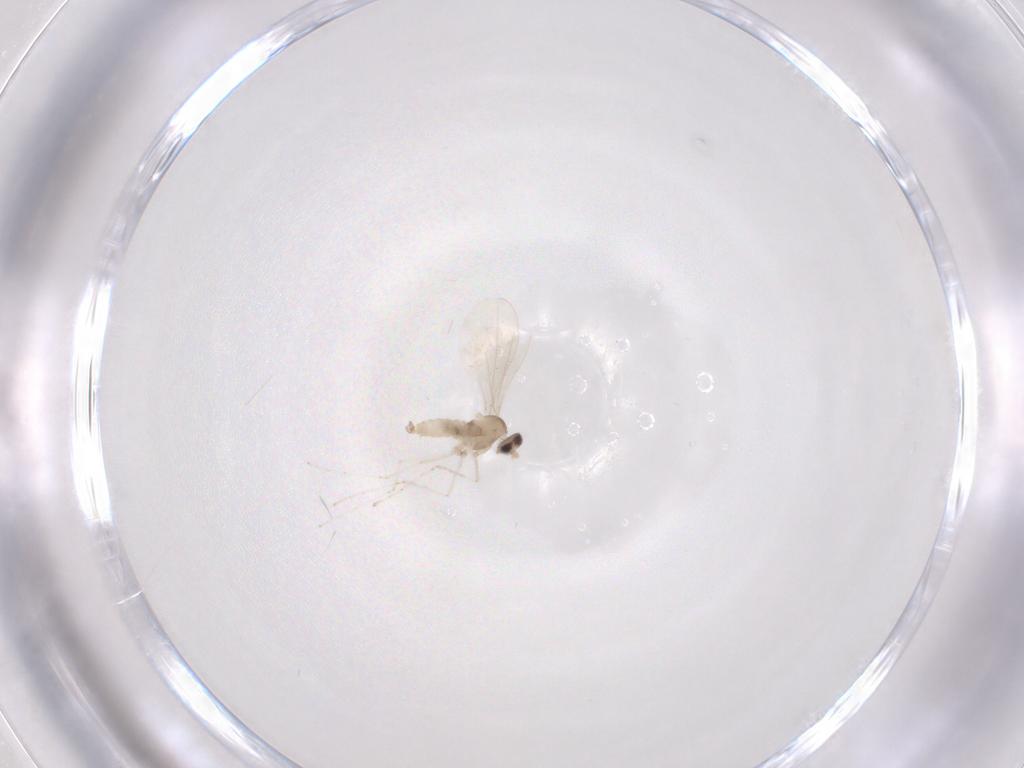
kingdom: Animalia
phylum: Arthropoda
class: Insecta
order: Diptera
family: Cecidomyiidae
